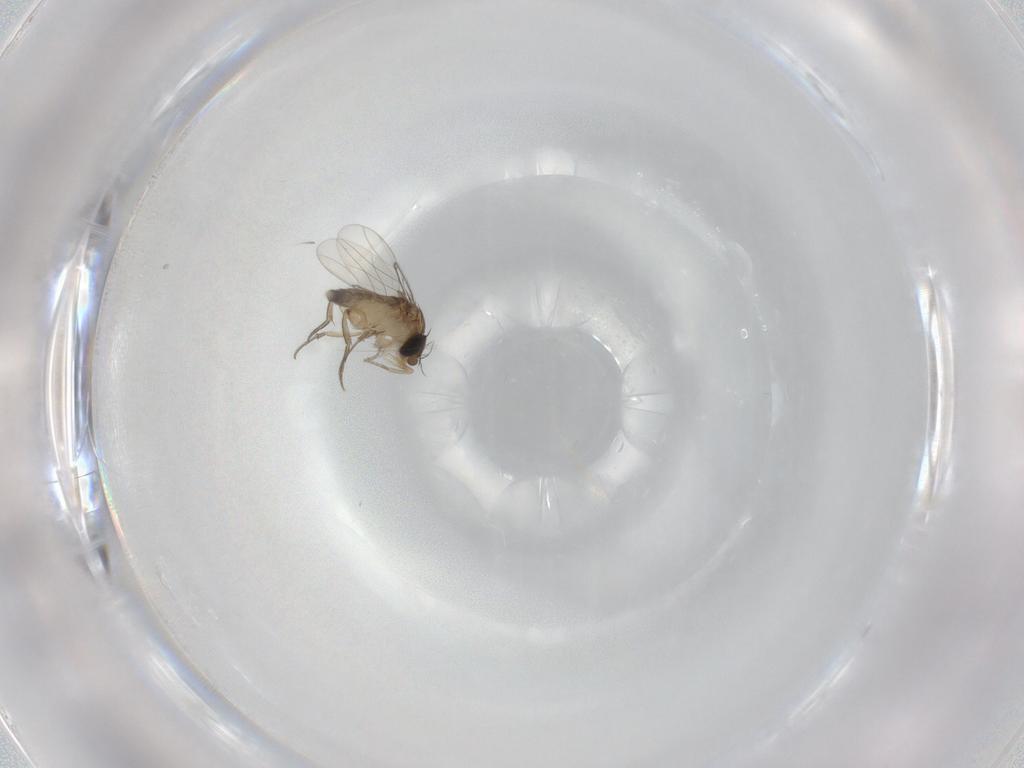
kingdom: Animalia
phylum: Arthropoda
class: Insecta
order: Diptera
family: Phoridae
